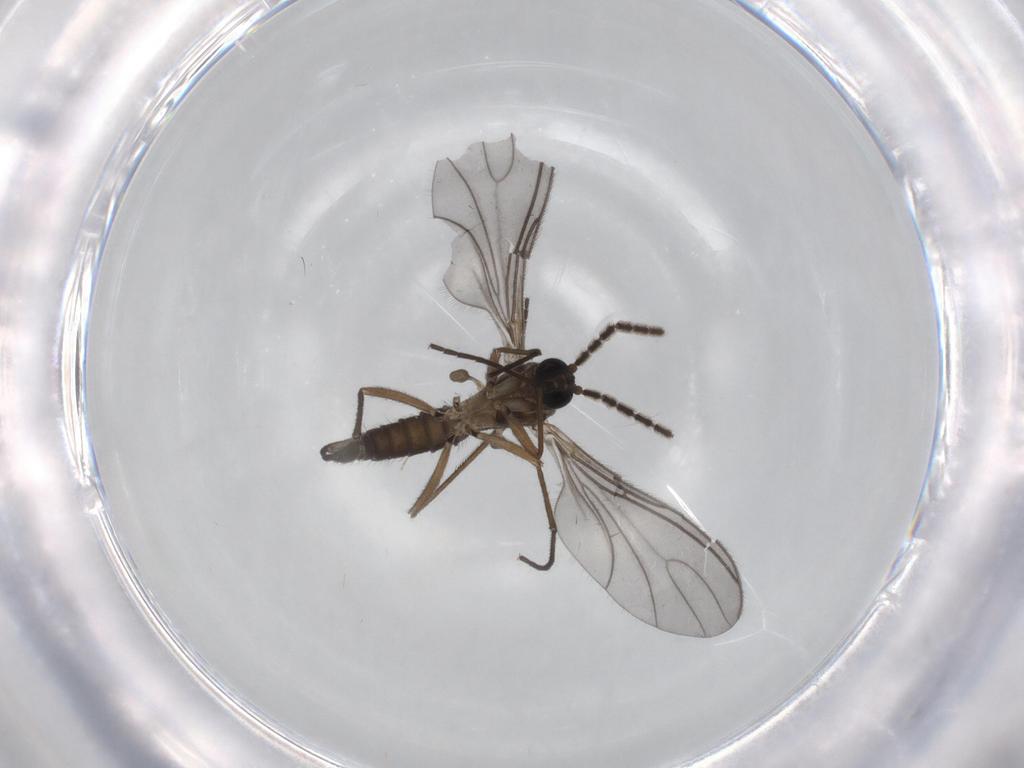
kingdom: Animalia
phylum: Arthropoda
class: Insecta
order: Diptera
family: Sciaridae
